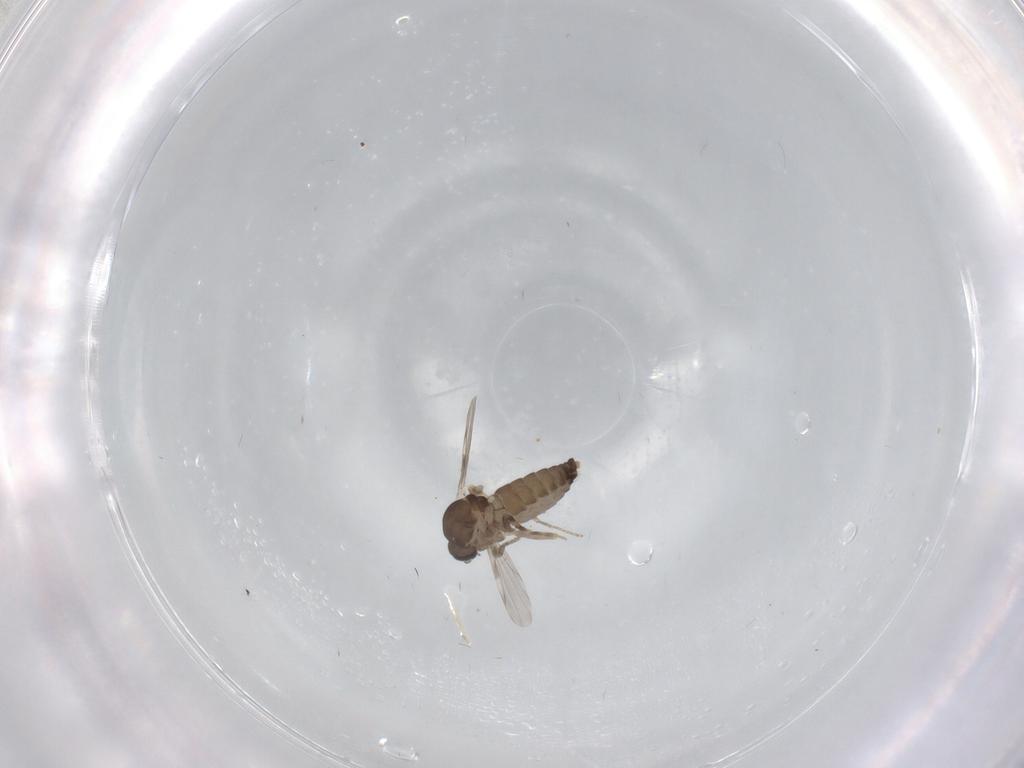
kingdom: Animalia
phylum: Arthropoda
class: Insecta
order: Diptera
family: Ceratopogonidae
